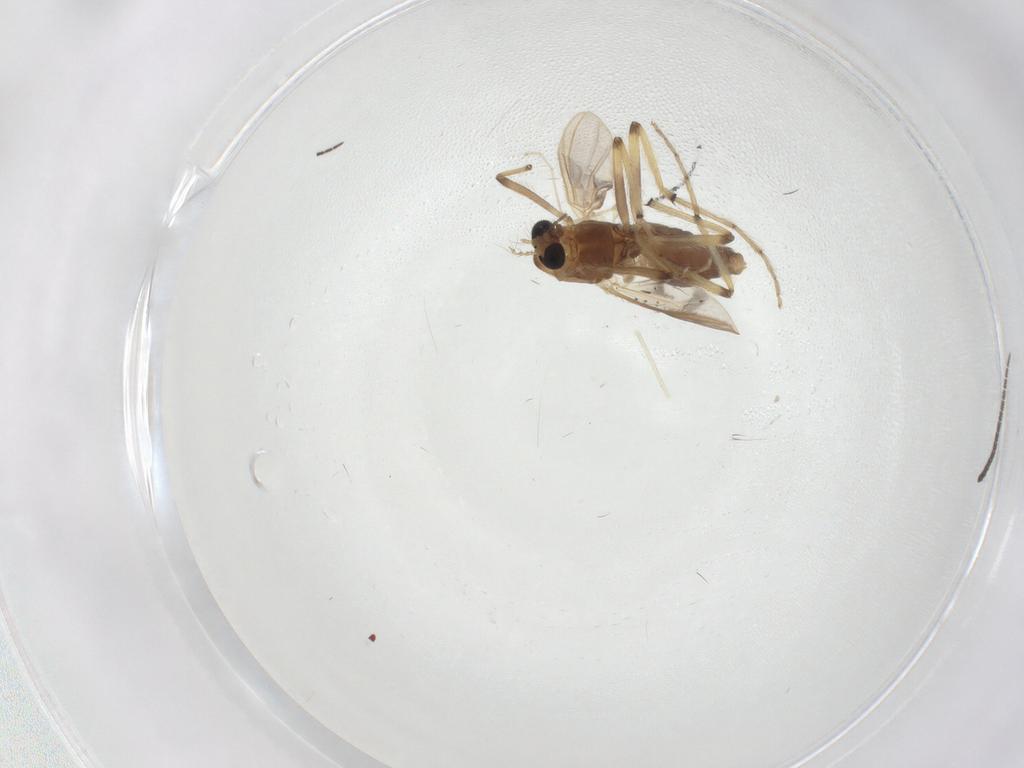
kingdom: Animalia
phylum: Arthropoda
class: Insecta
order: Diptera
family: Chironomidae
